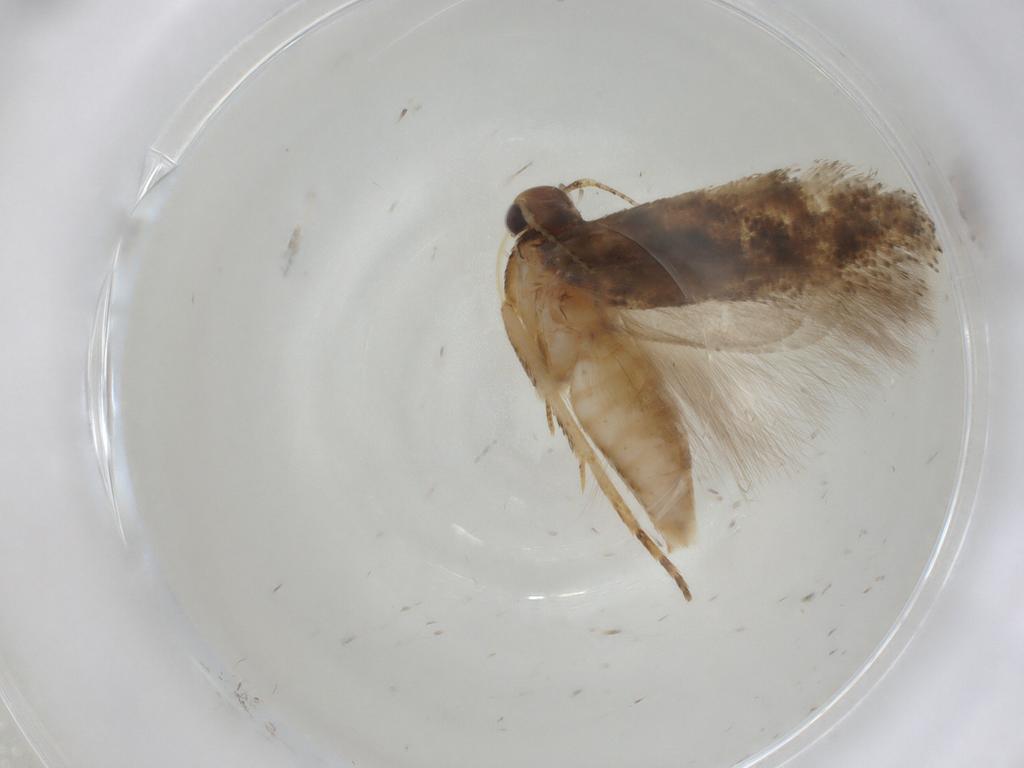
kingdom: Animalia
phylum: Arthropoda
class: Insecta
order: Lepidoptera
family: Gelechiidae
